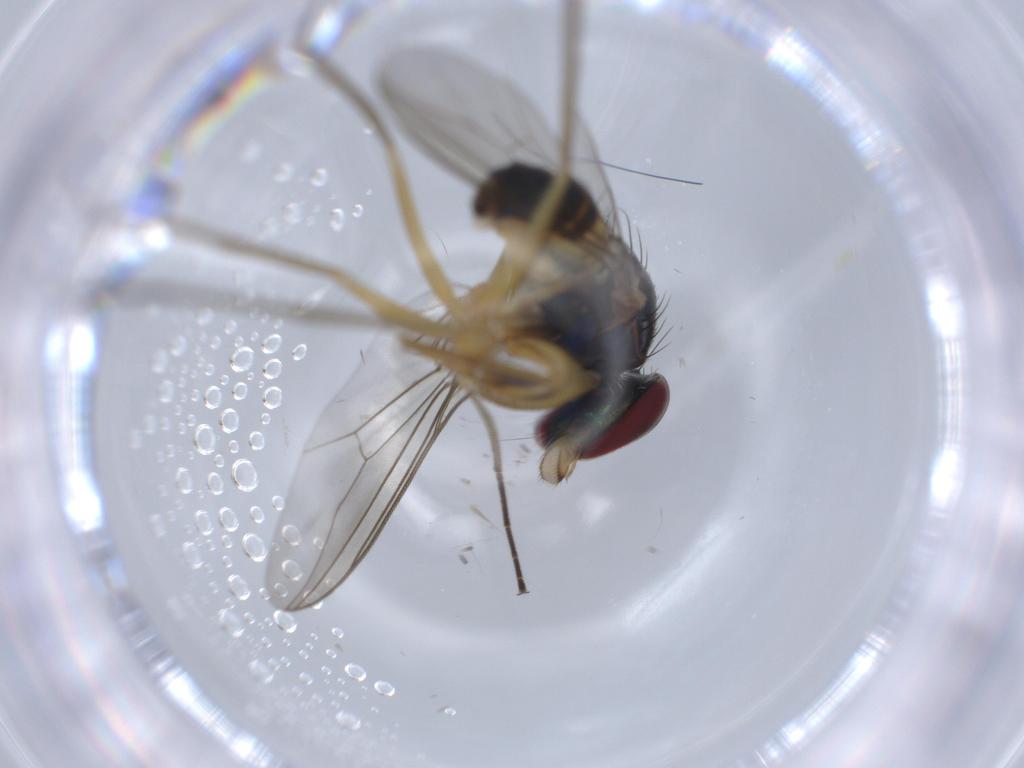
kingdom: Animalia
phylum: Arthropoda
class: Insecta
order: Diptera
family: Dolichopodidae
